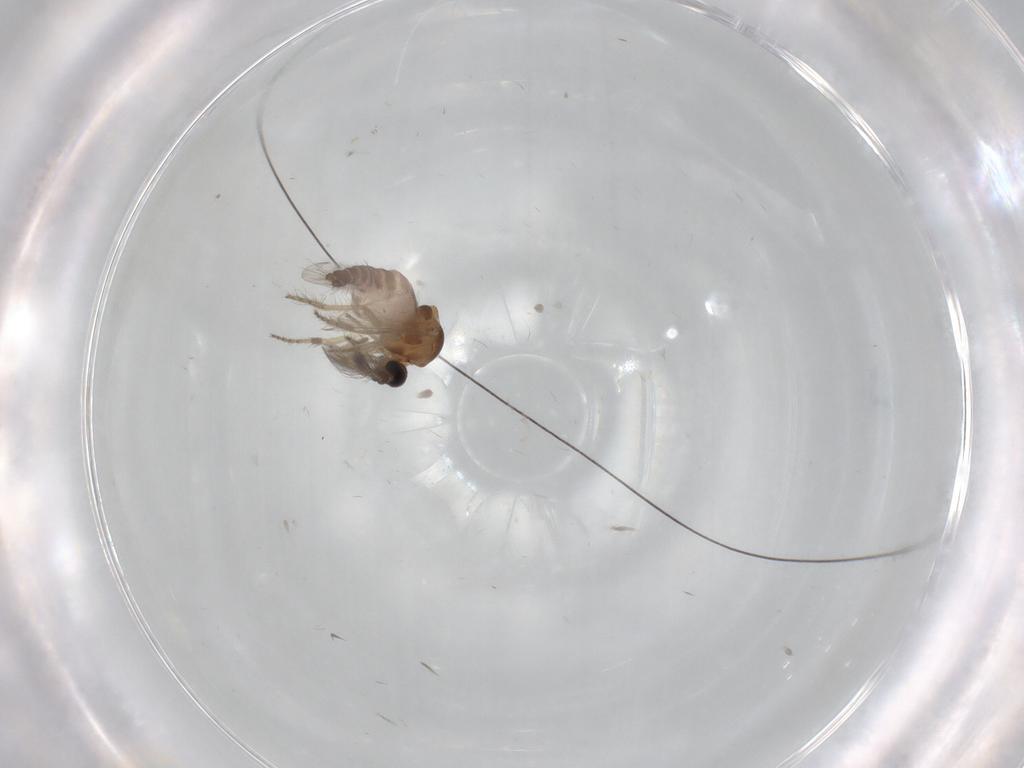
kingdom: Animalia
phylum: Arthropoda
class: Insecta
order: Diptera
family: Ceratopogonidae
